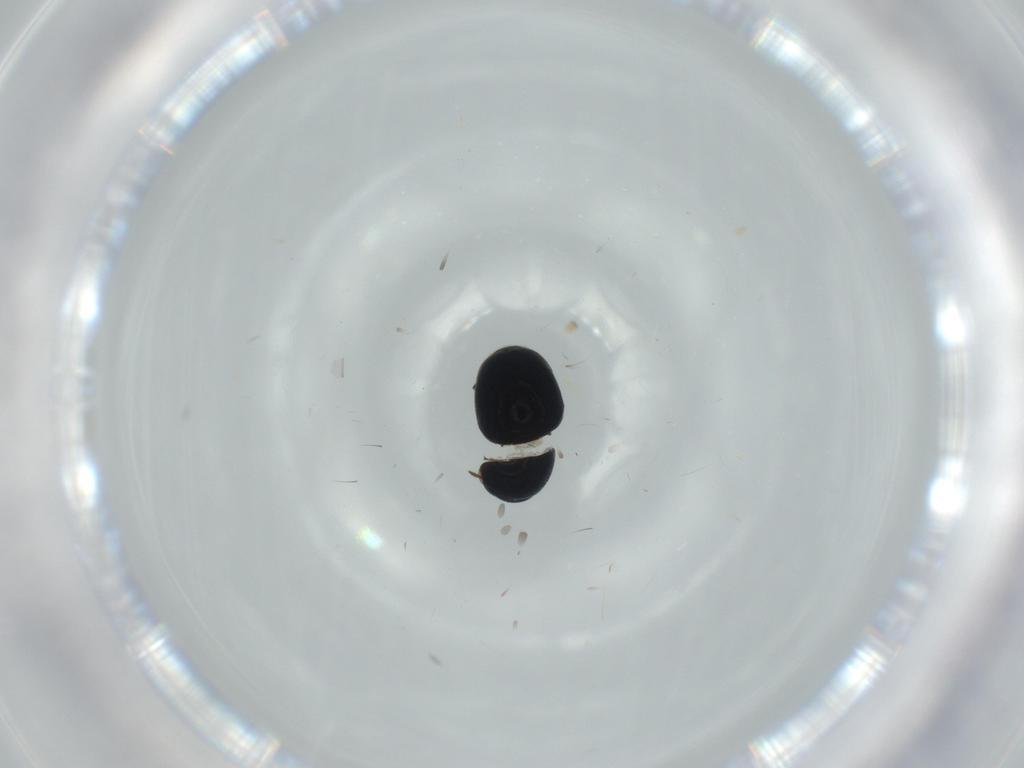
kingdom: Animalia
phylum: Arthropoda
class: Insecta
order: Coleoptera
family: Cybocephalidae
